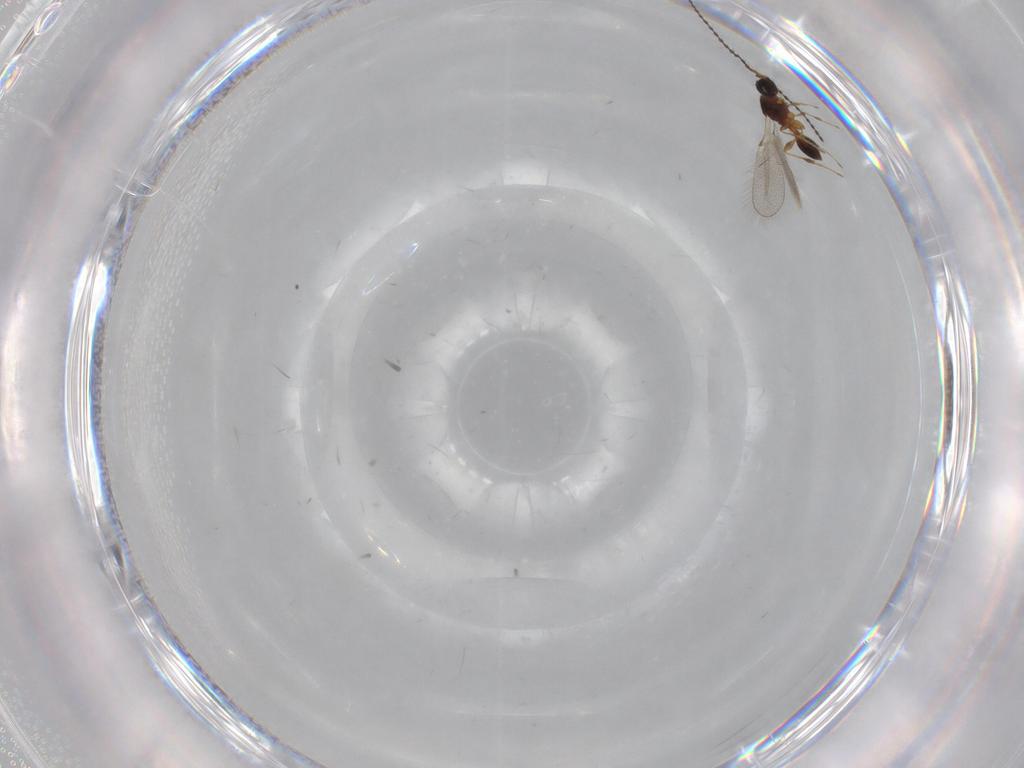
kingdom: Animalia
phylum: Arthropoda
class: Insecta
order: Hymenoptera
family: Diapriidae
